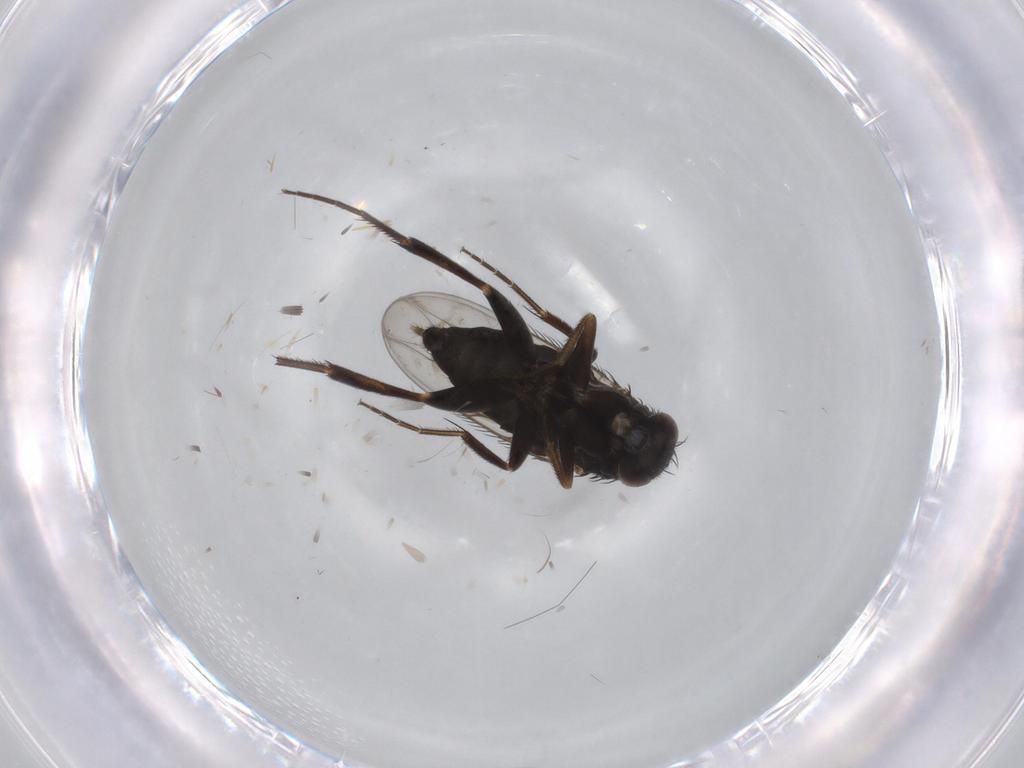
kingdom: Animalia
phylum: Arthropoda
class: Insecta
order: Diptera
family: Phoridae
